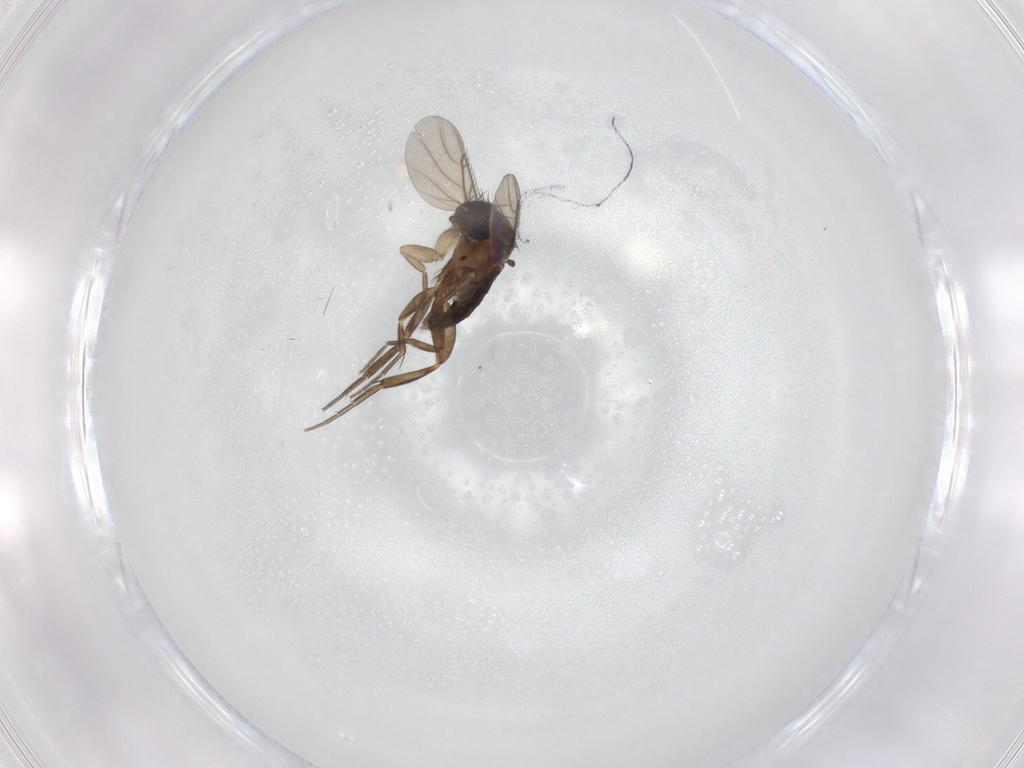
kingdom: Animalia
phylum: Arthropoda
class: Insecta
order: Diptera
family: Phoridae
